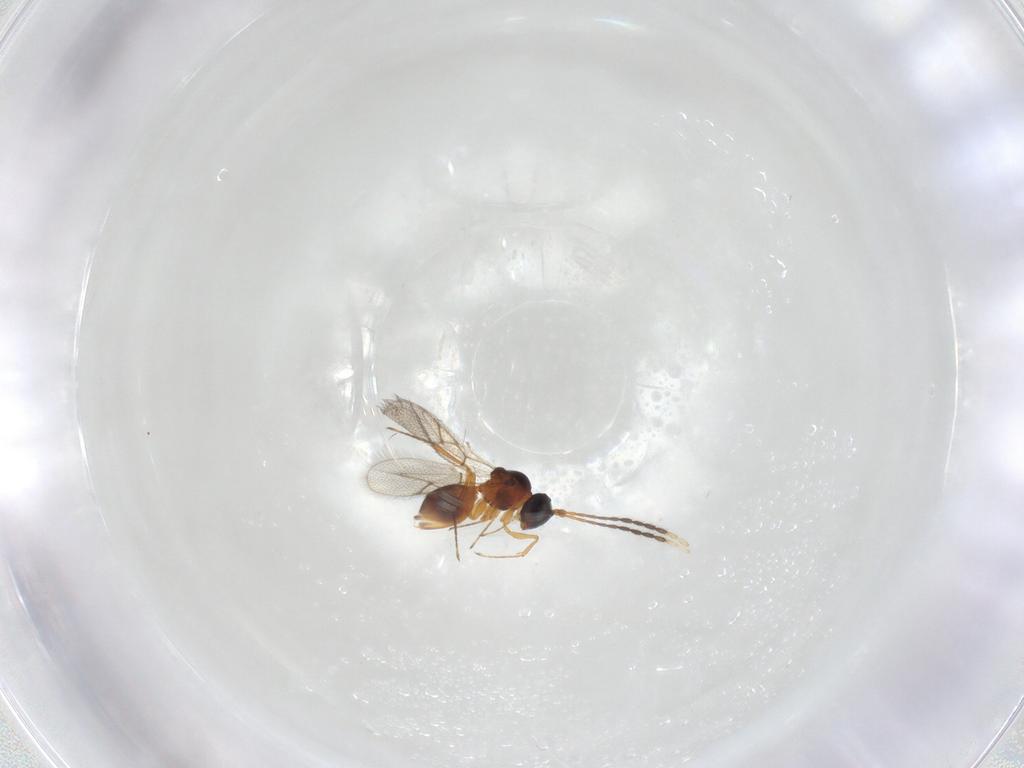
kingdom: Animalia
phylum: Arthropoda
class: Insecta
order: Hymenoptera
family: Figitidae
